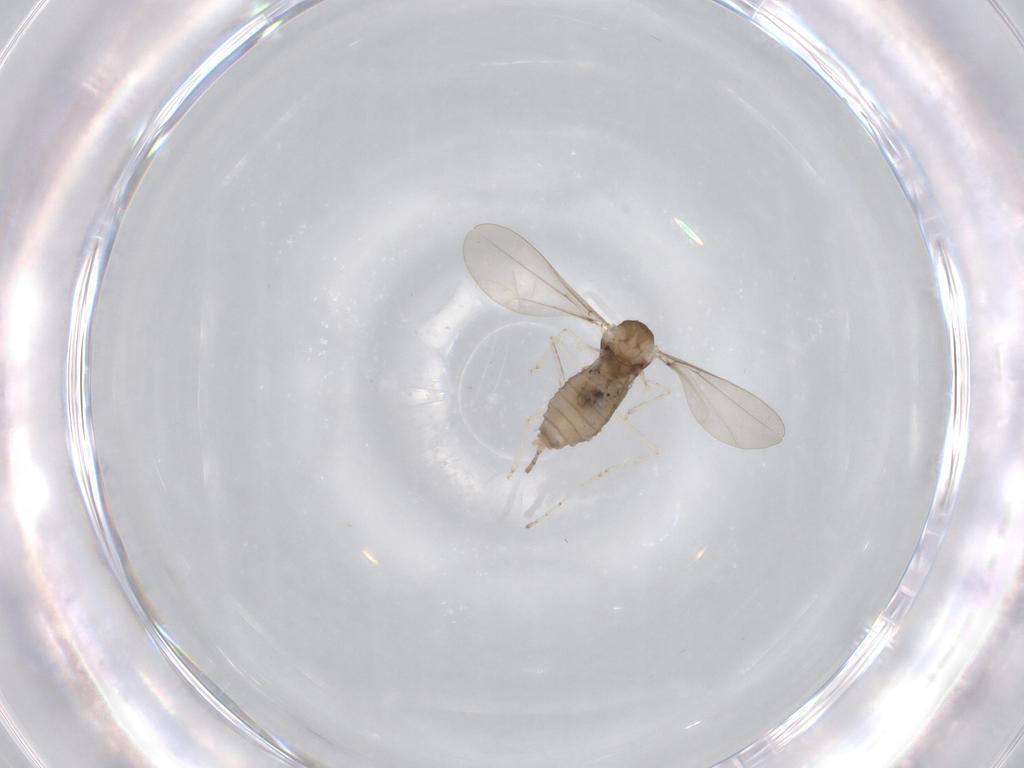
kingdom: Animalia
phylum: Arthropoda
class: Insecta
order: Diptera
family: Cecidomyiidae
